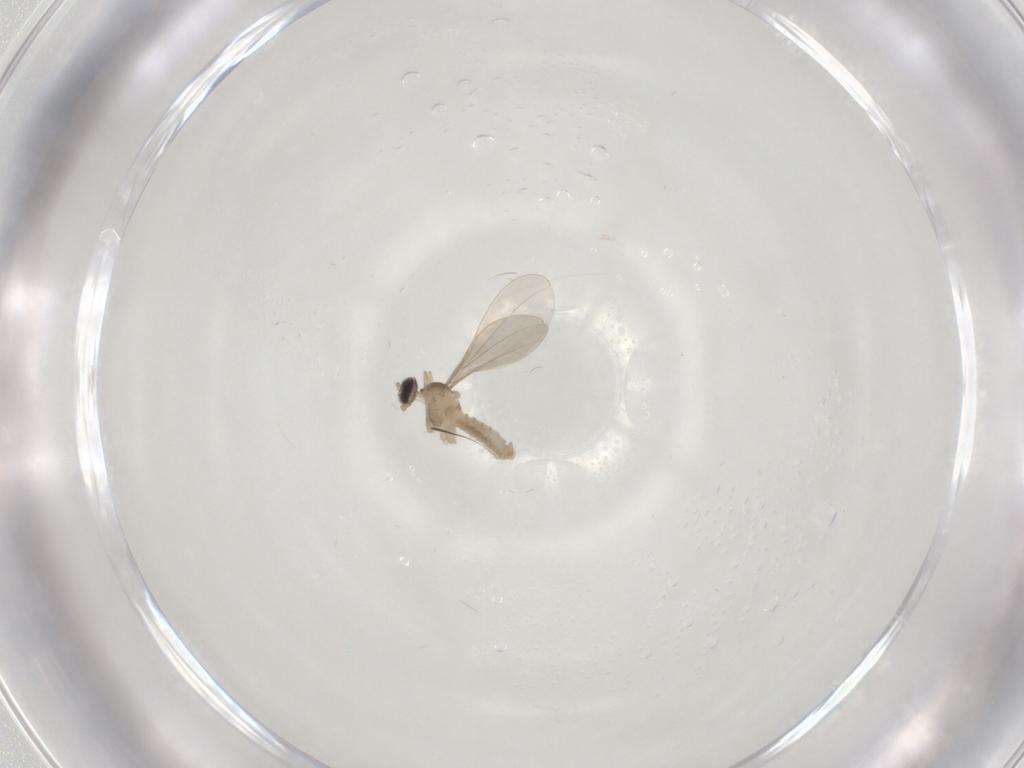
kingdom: Animalia
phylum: Arthropoda
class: Insecta
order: Diptera
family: Cecidomyiidae
